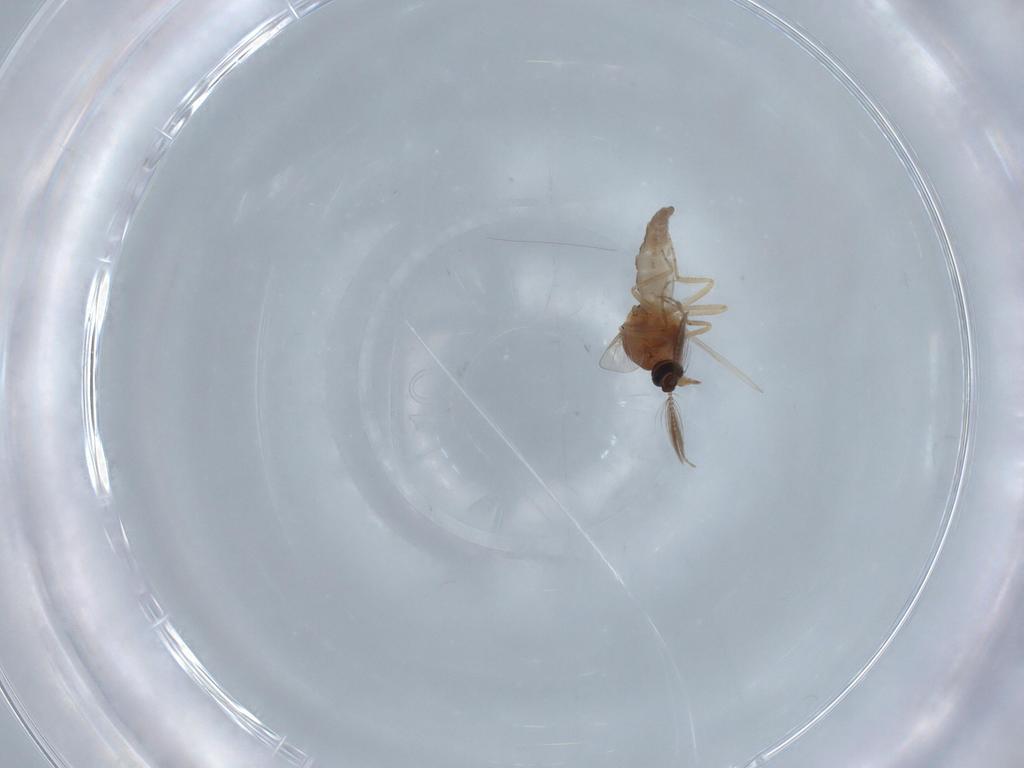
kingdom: Animalia
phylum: Arthropoda
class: Insecta
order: Diptera
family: Ceratopogonidae
